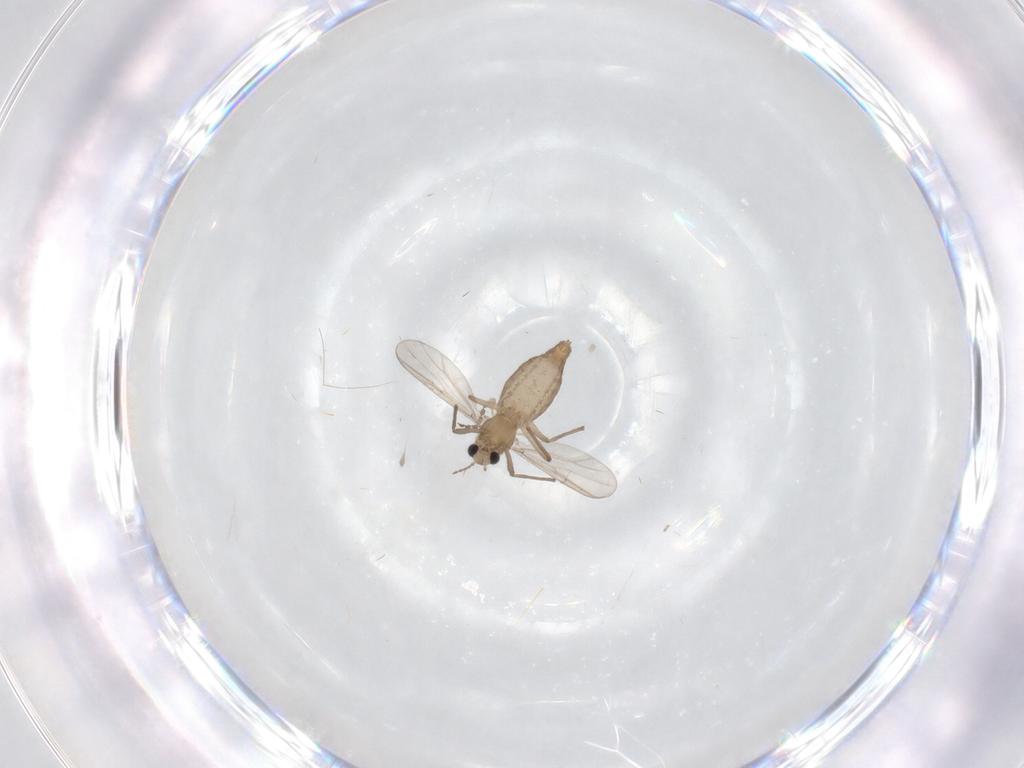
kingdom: Animalia
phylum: Arthropoda
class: Insecta
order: Diptera
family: Chironomidae
